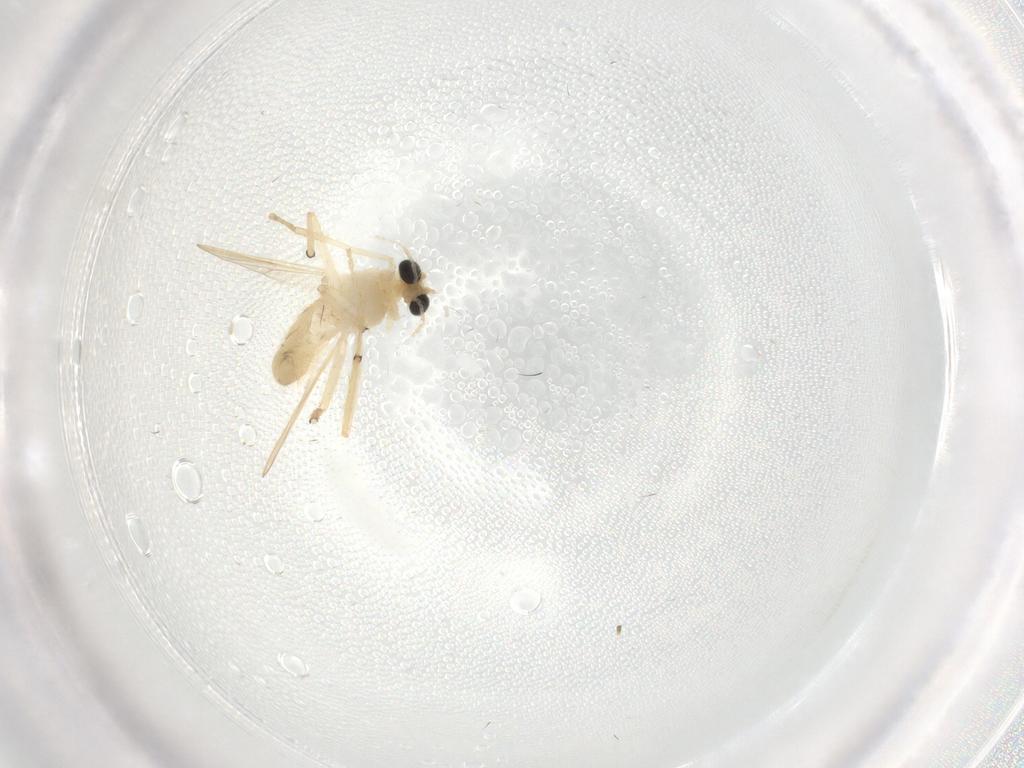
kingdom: Animalia
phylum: Arthropoda
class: Insecta
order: Diptera
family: Chironomidae
